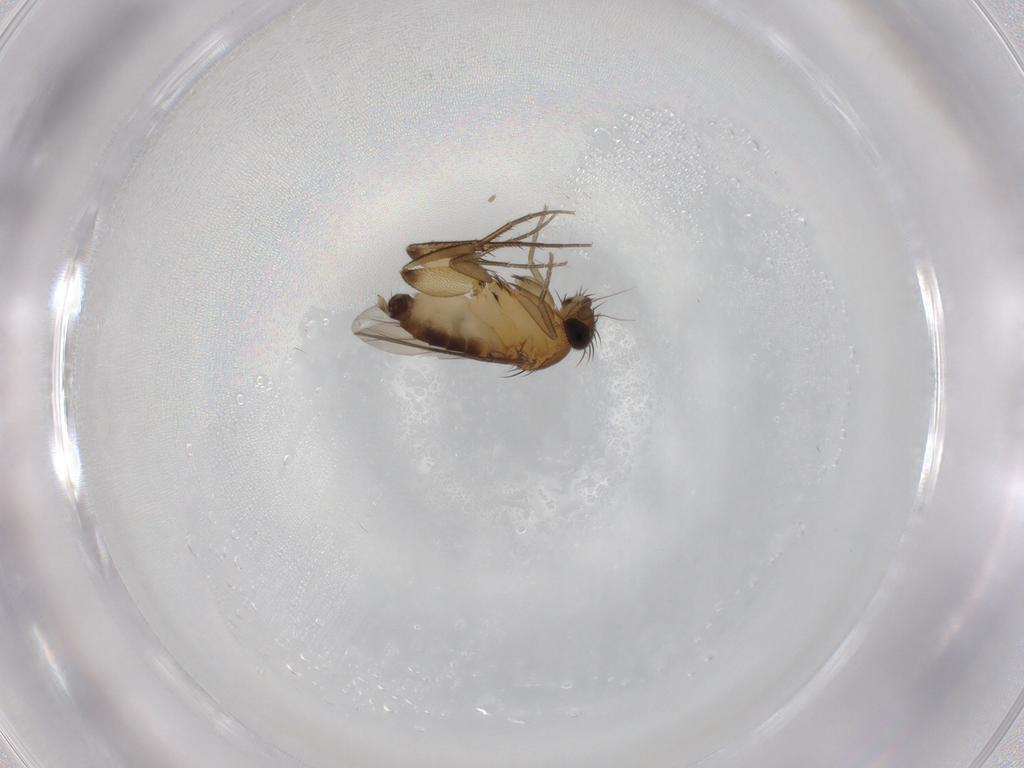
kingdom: Animalia
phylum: Arthropoda
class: Insecta
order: Diptera
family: Phoridae
